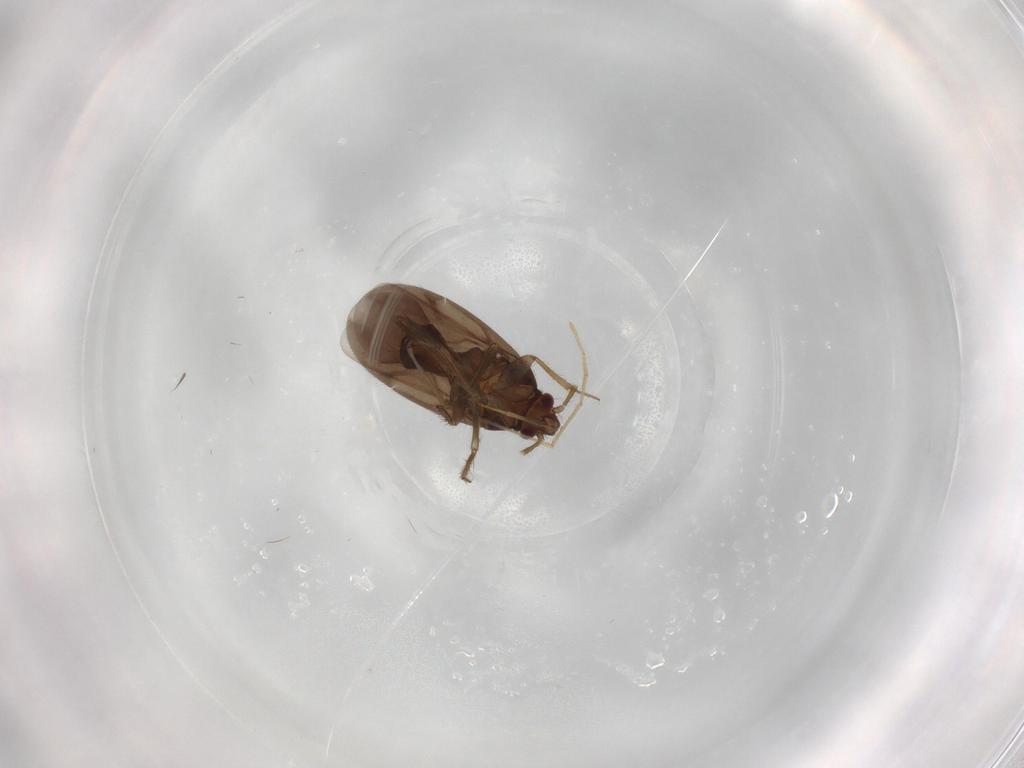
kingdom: Animalia
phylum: Arthropoda
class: Insecta
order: Hemiptera
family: Ceratocombidae
